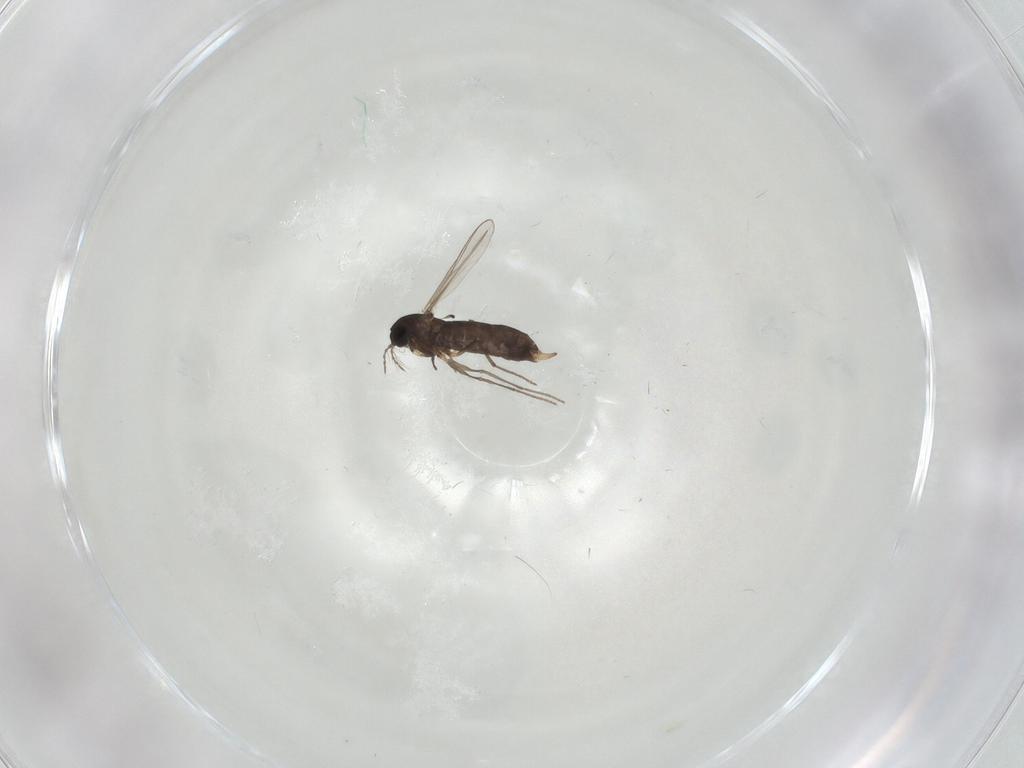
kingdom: Animalia
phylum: Arthropoda
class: Insecta
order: Diptera
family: Chironomidae
